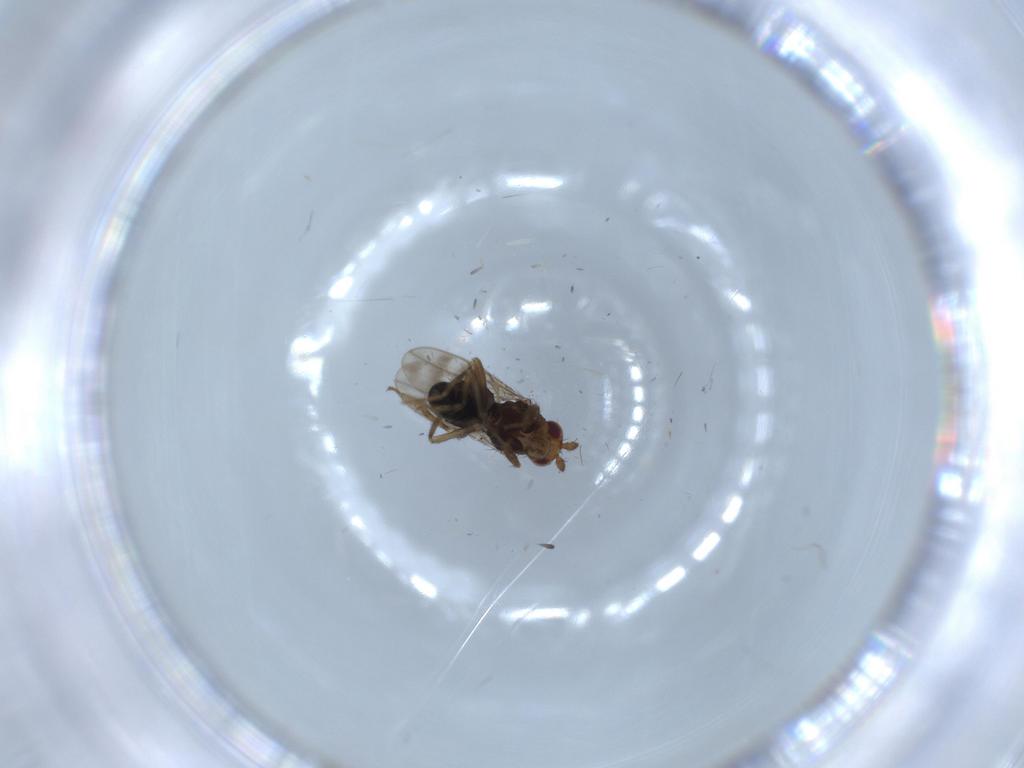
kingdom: Animalia
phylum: Arthropoda
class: Insecta
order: Diptera
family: Sphaeroceridae
